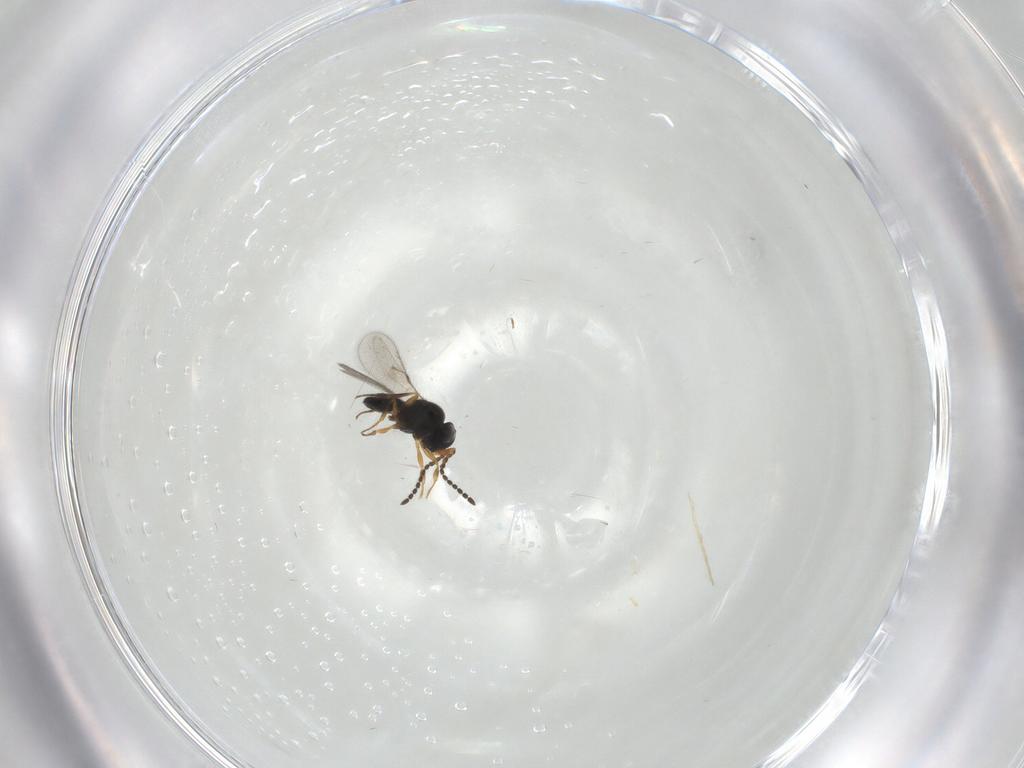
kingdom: Animalia
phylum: Arthropoda
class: Insecta
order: Hymenoptera
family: Scelionidae
